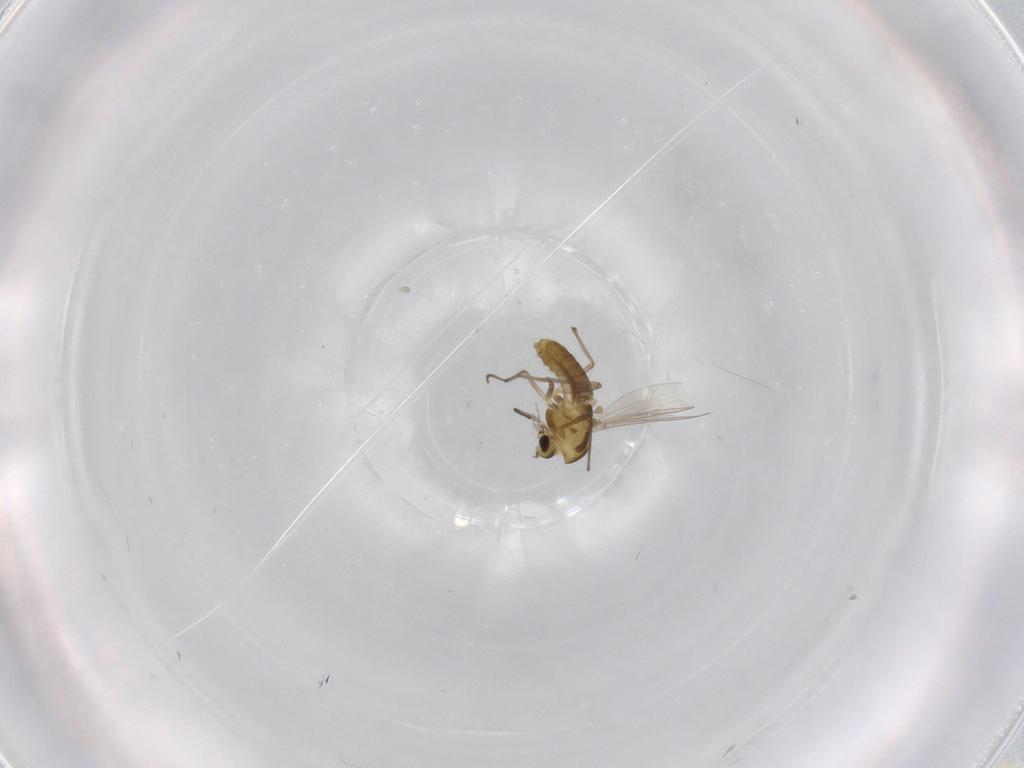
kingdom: Animalia
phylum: Arthropoda
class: Insecta
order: Diptera
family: Chironomidae
